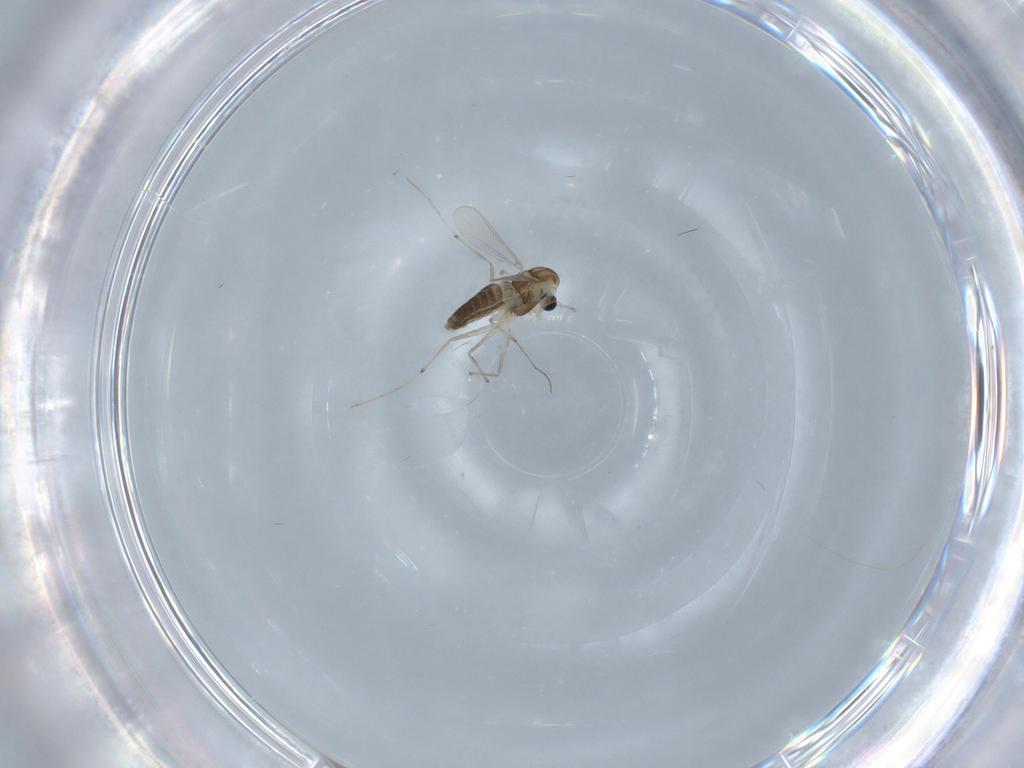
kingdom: Animalia
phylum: Arthropoda
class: Insecta
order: Diptera
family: Chironomidae
